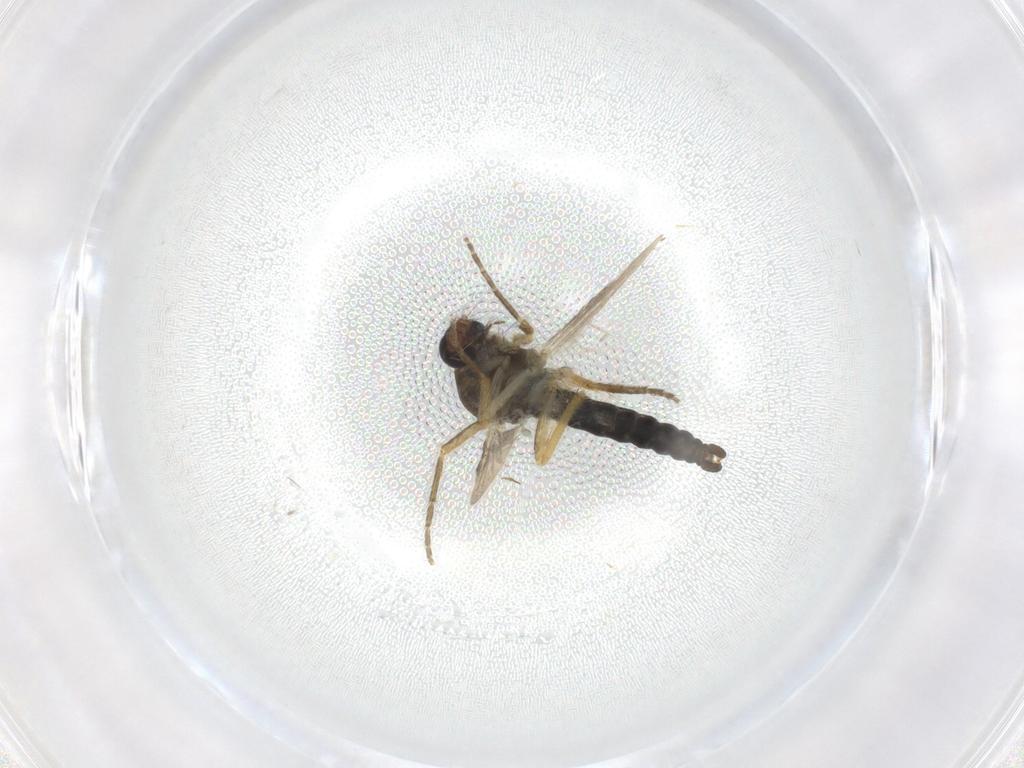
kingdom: Animalia
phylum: Arthropoda
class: Insecta
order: Diptera
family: Ceratopogonidae
